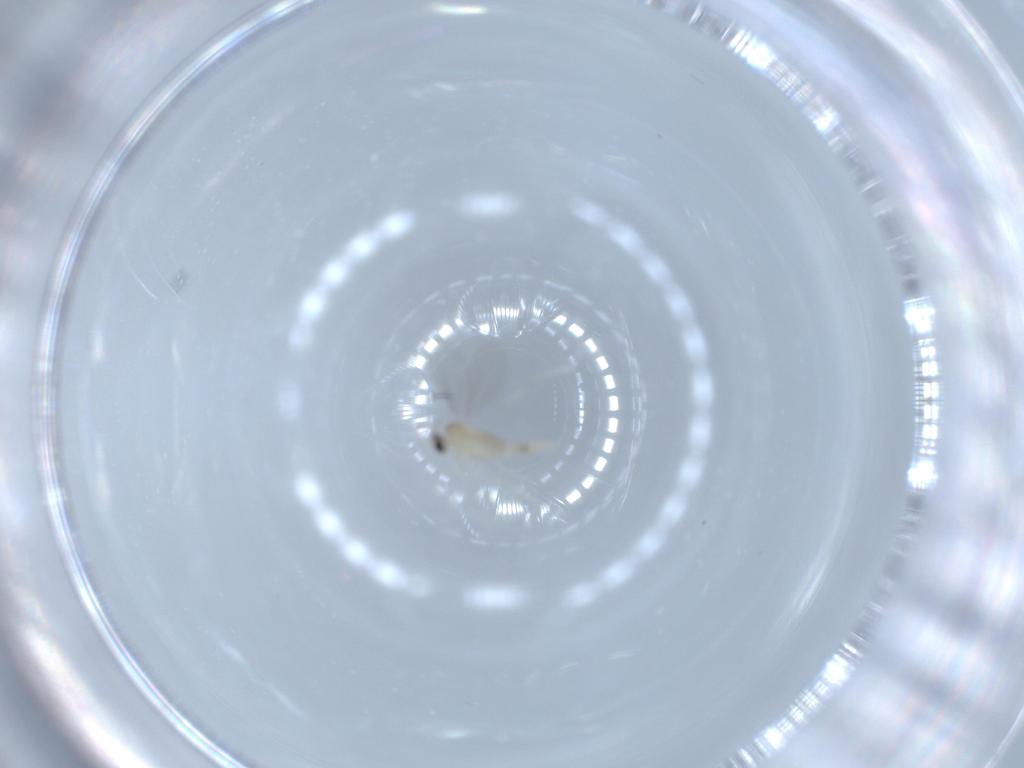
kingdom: Animalia
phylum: Arthropoda
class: Insecta
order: Diptera
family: Cecidomyiidae
